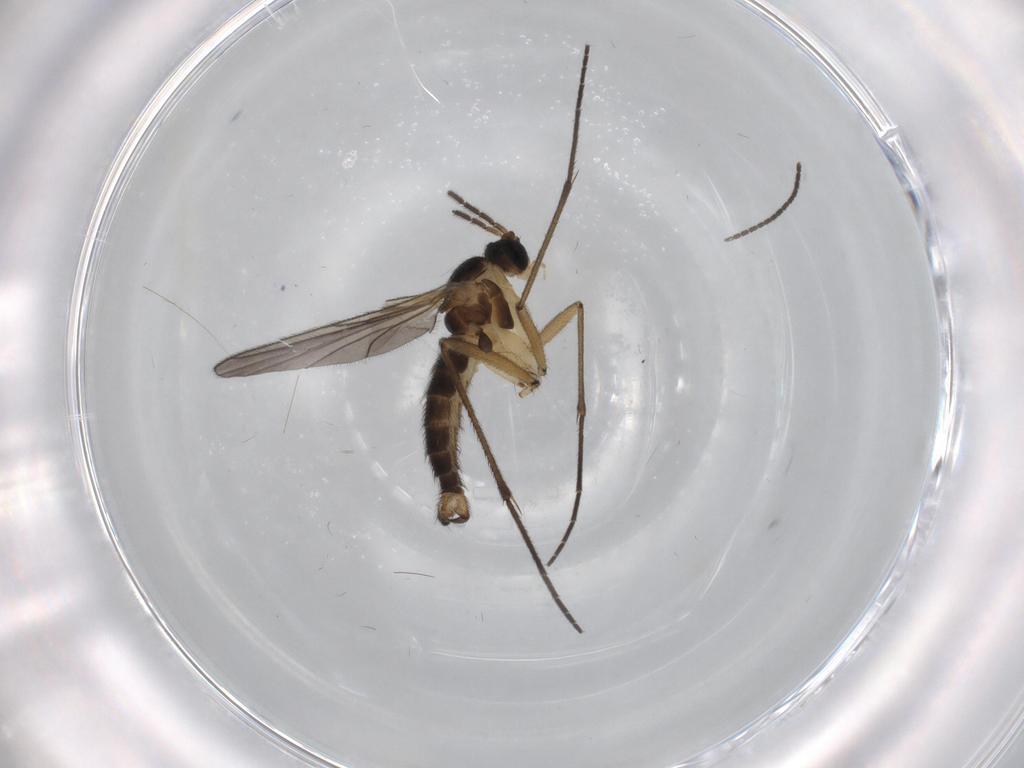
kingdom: Animalia
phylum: Arthropoda
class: Insecta
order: Diptera
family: Sciaridae
